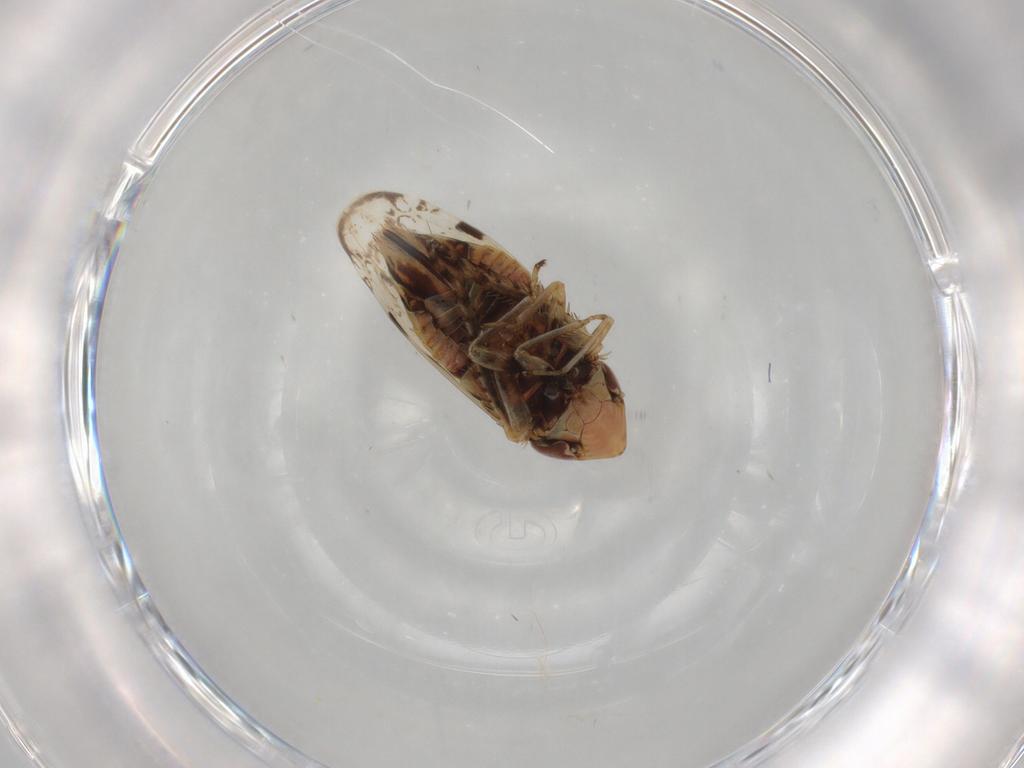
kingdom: Animalia
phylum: Arthropoda
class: Insecta
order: Hemiptera
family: Cicadellidae
